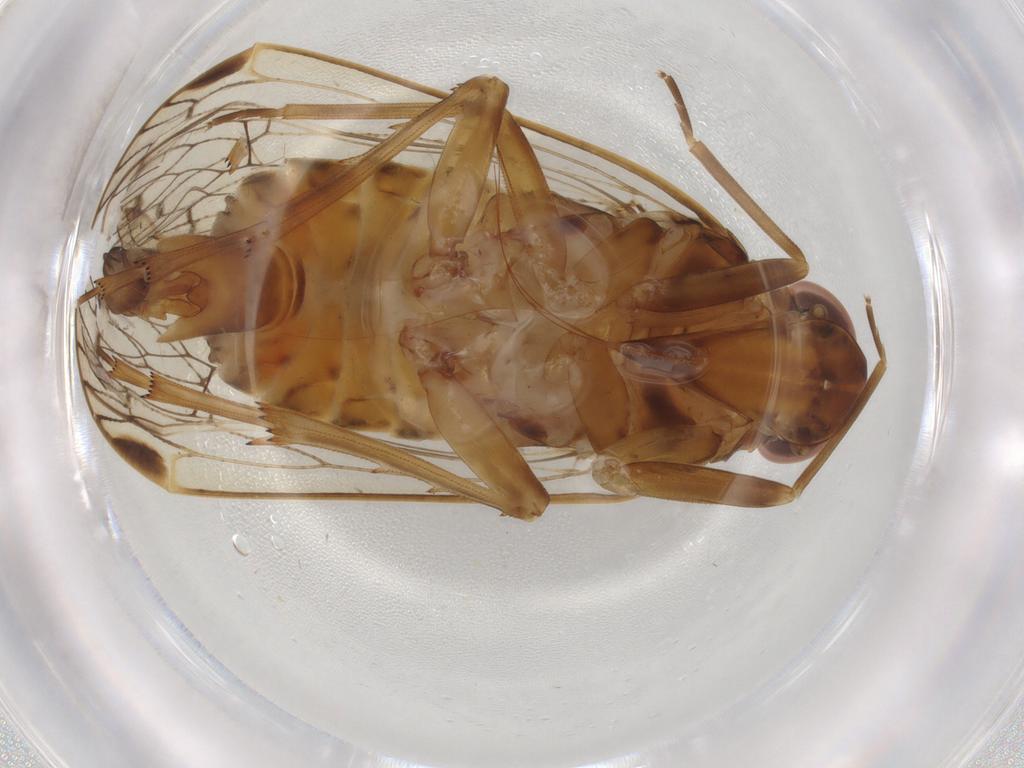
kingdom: Animalia
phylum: Arthropoda
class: Insecta
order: Hemiptera
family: Cixiidae
